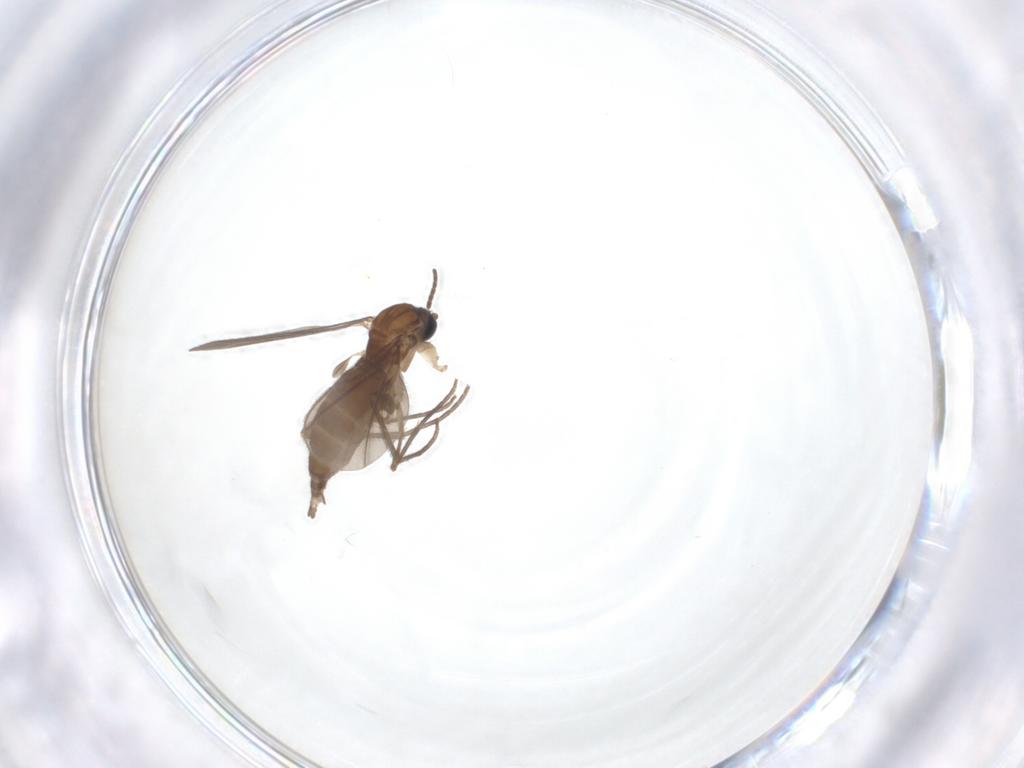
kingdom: Animalia
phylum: Arthropoda
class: Insecta
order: Diptera
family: Sciaridae
